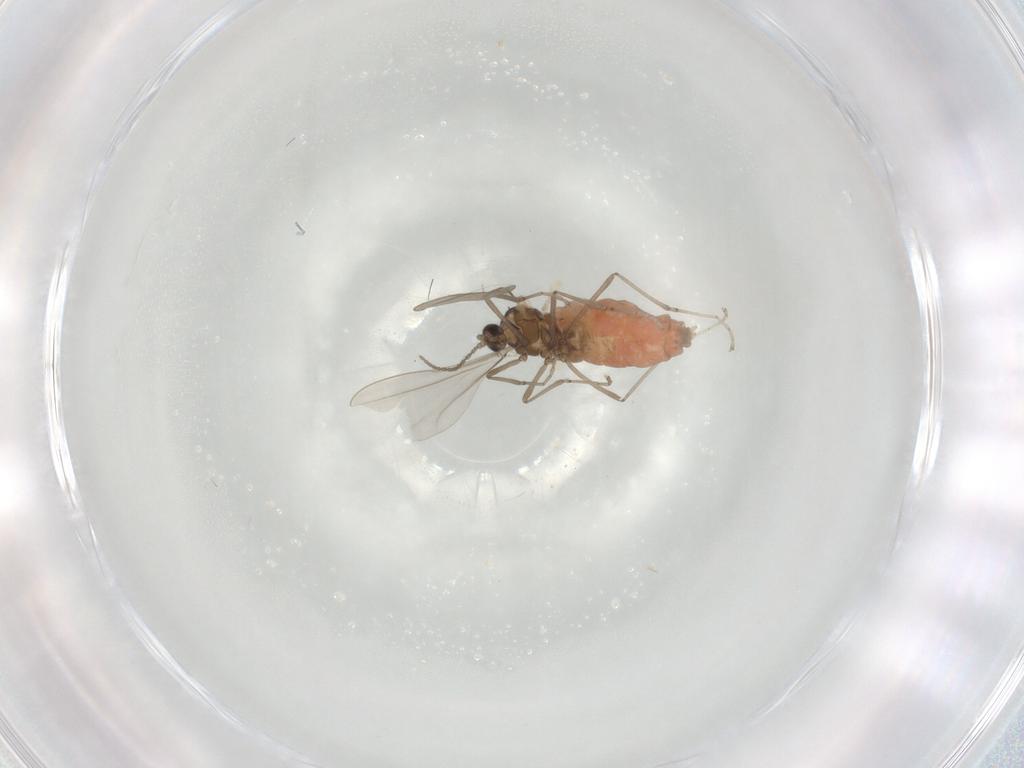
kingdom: Animalia
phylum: Arthropoda
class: Insecta
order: Diptera
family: Cecidomyiidae
